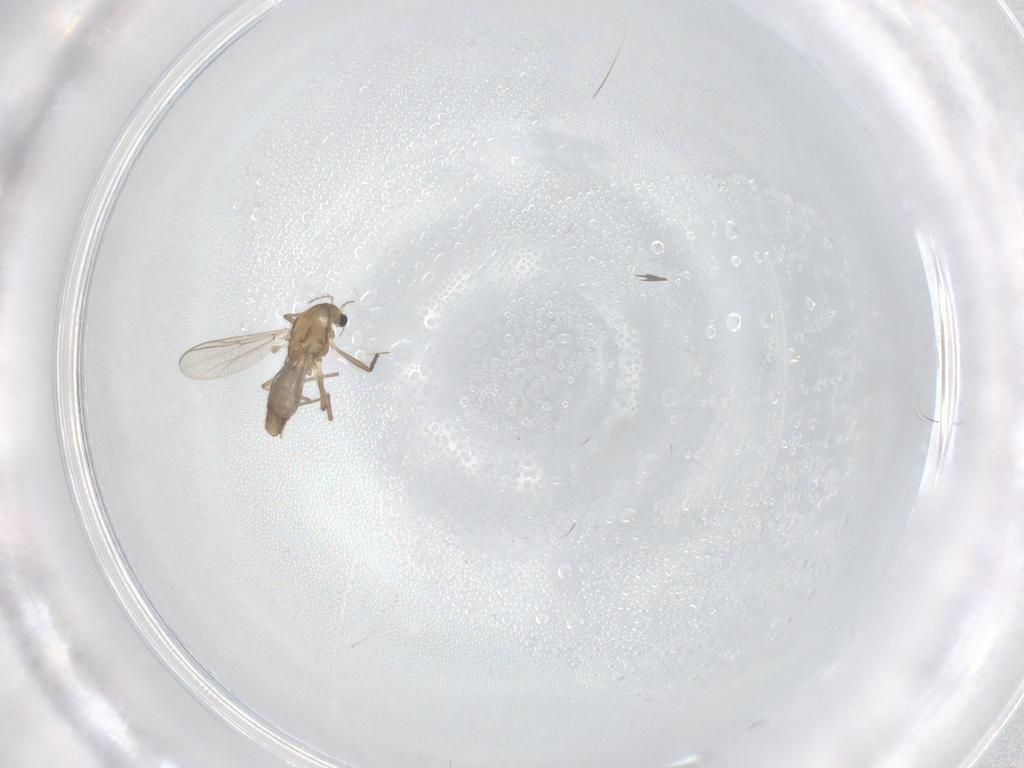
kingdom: Animalia
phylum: Arthropoda
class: Insecta
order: Diptera
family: Chironomidae
